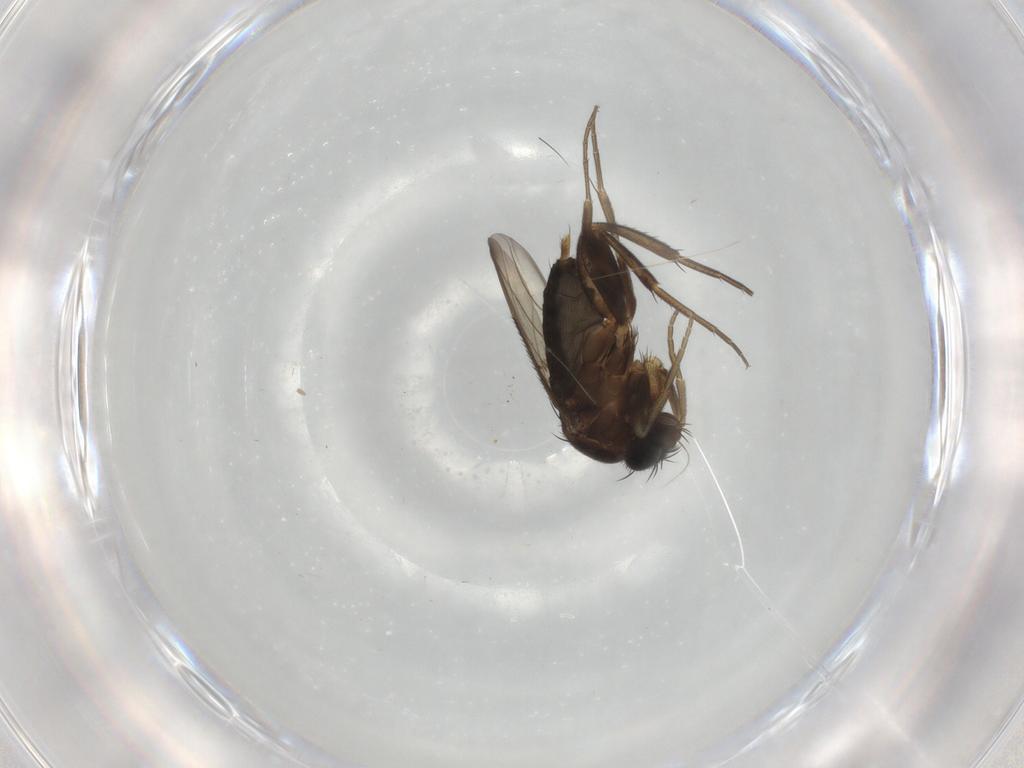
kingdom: Animalia
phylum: Arthropoda
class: Insecta
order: Diptera
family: Phoridae
